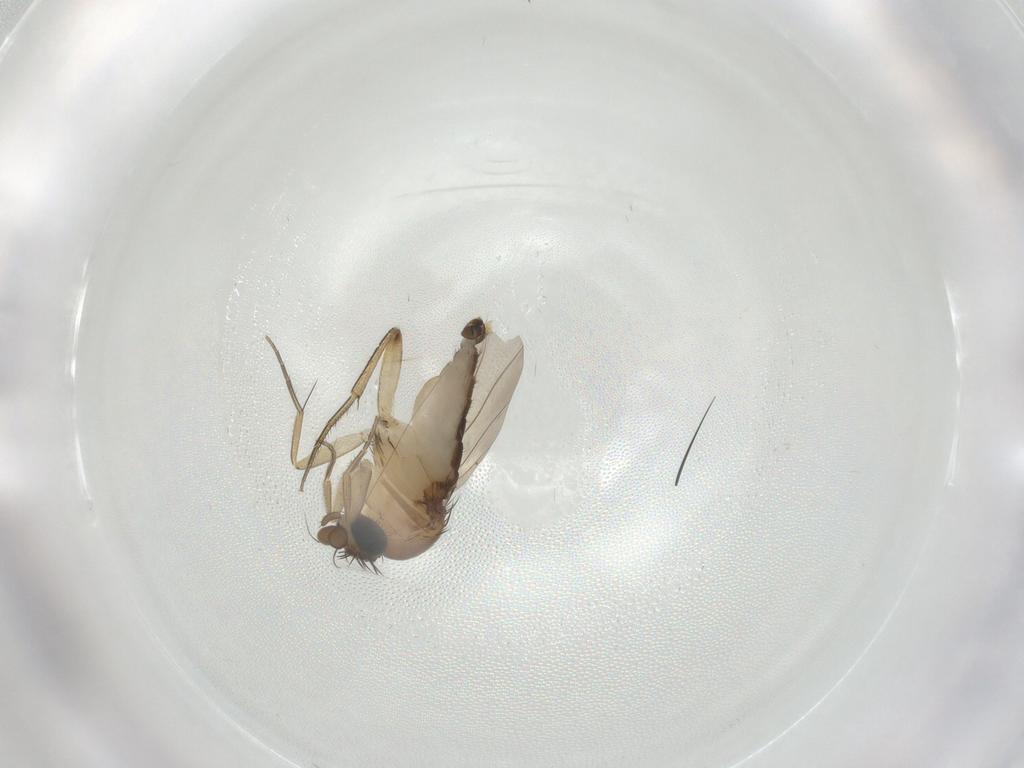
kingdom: Animalia
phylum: Arthropoda
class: Insecta
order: Diptera
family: Phoridae
